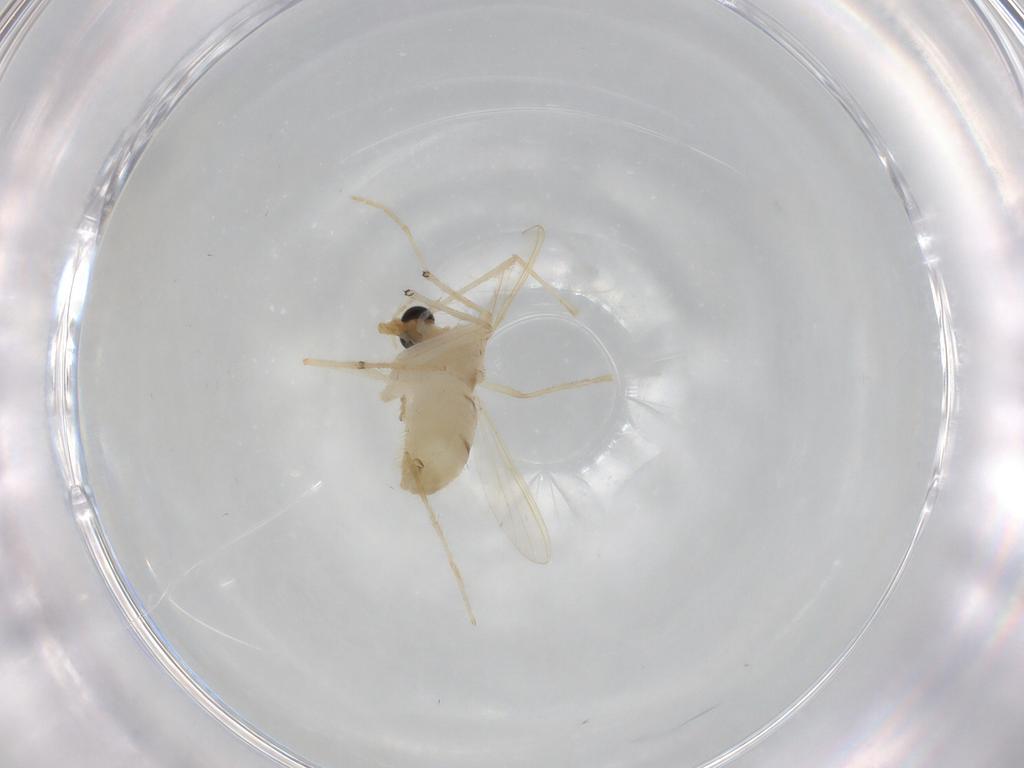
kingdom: Animalia
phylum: Arthropoda
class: Insecta
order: Diptera
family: Chironomidae
